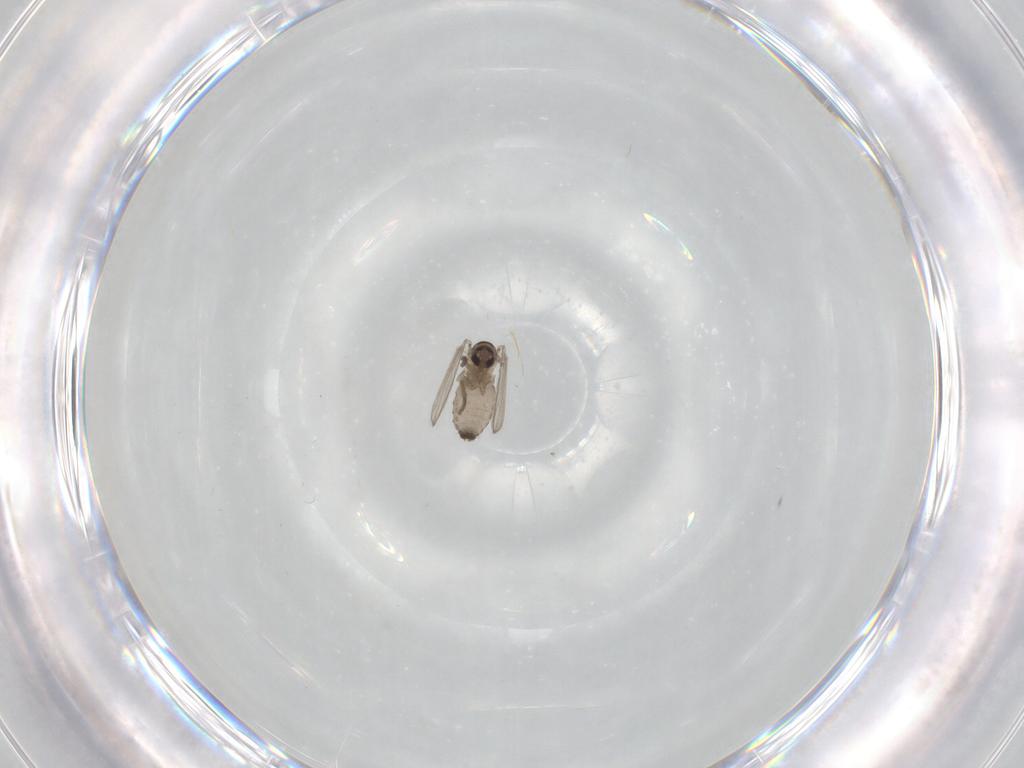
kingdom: Animalia
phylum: Arthropoda
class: Insecta
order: Diptera
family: Psychodidae
